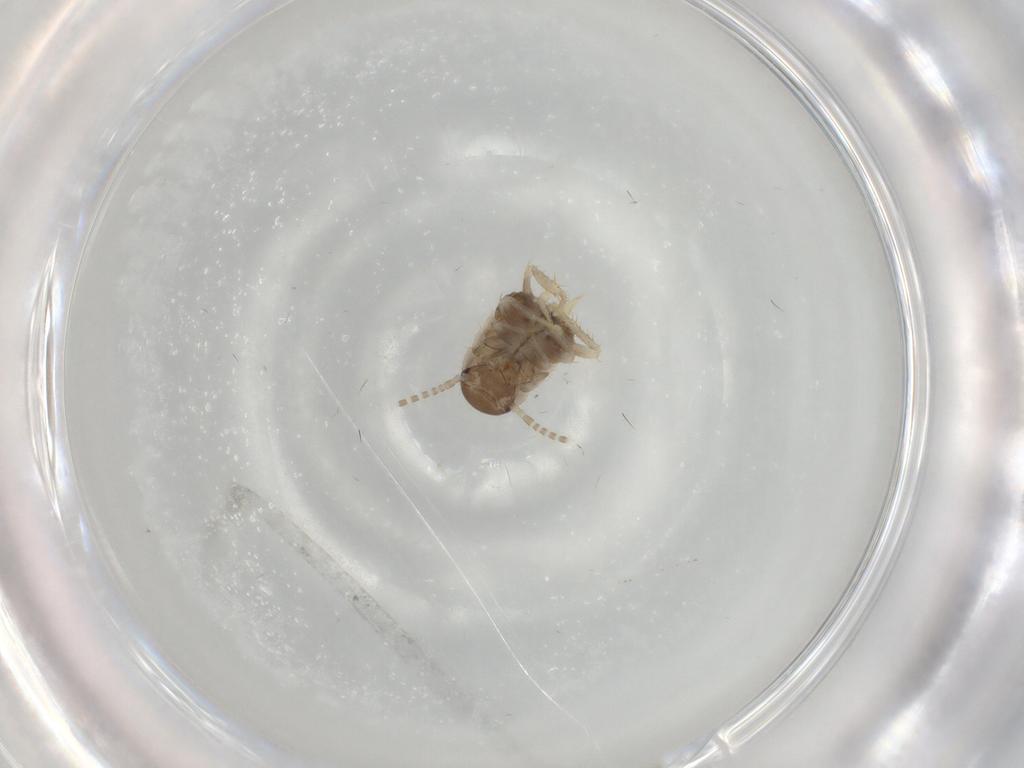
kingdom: Animalia
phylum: Arthropoda
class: Insecta
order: Blattodea
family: Ectobiidae
